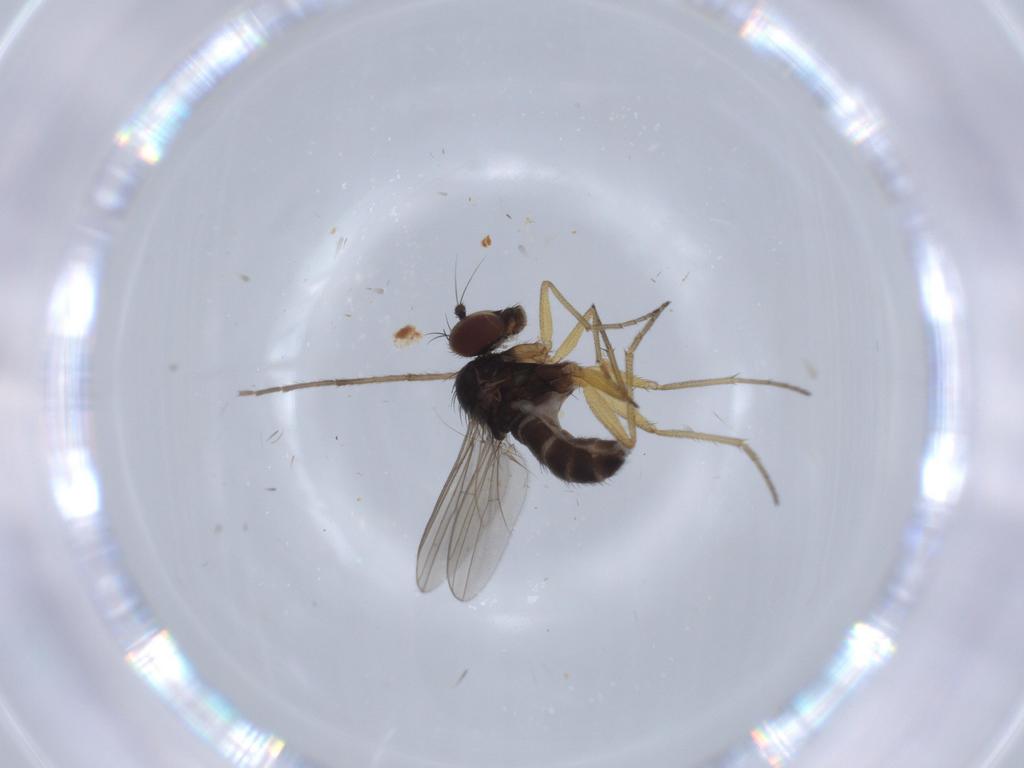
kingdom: Animalia
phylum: Arthropoda
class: Insecta
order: Diptera
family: Dolichopodidae
